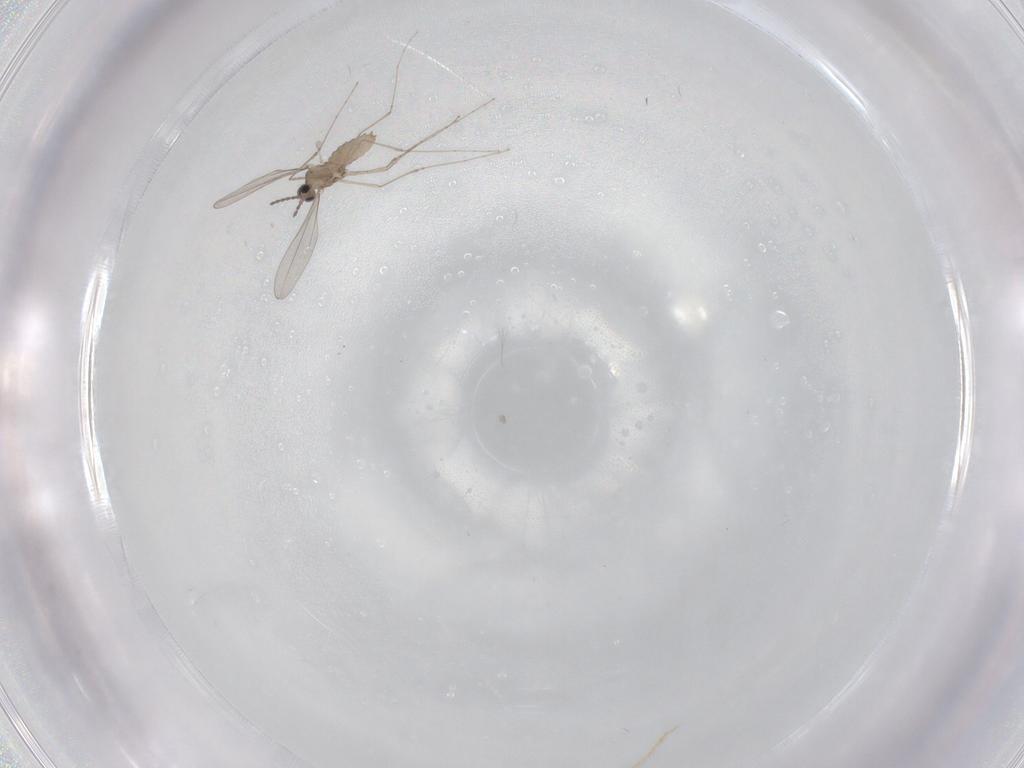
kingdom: Animalia
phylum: Arthropoda
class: Insecta
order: Diptera
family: Cecidomyiidae
